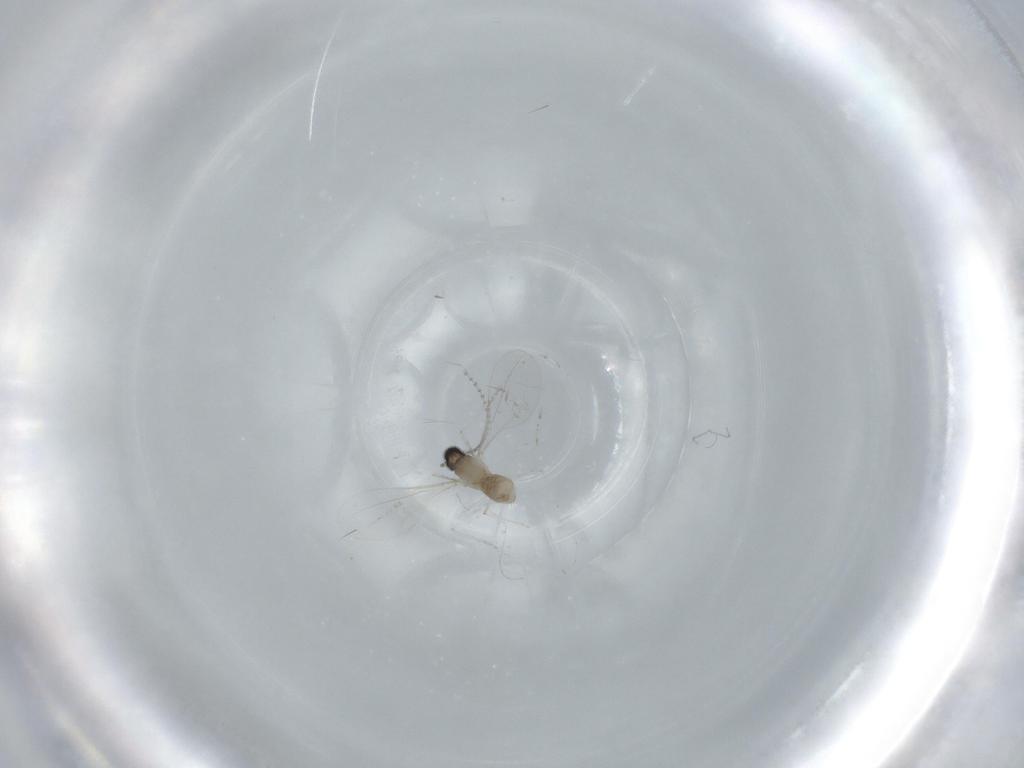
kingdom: Animalia
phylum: Arthropoda
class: Insecta
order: Diptera
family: Cecidomyiidae
